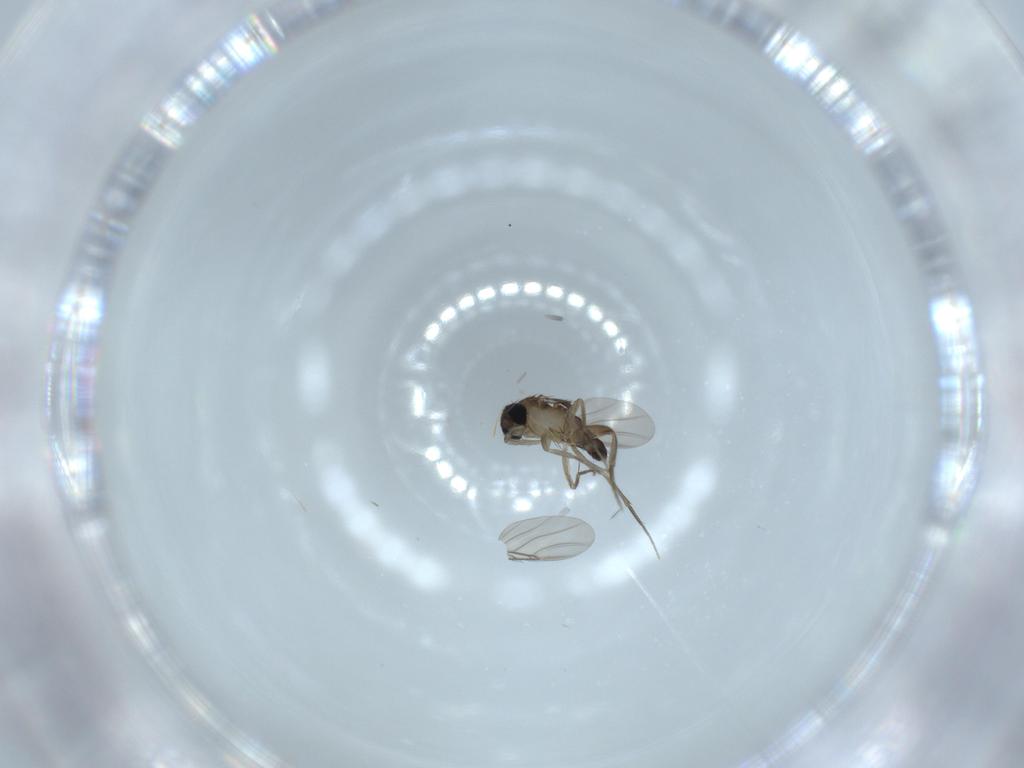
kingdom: Animalia
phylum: Arthropoda
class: Insecta
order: Diptera
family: Phoridae
